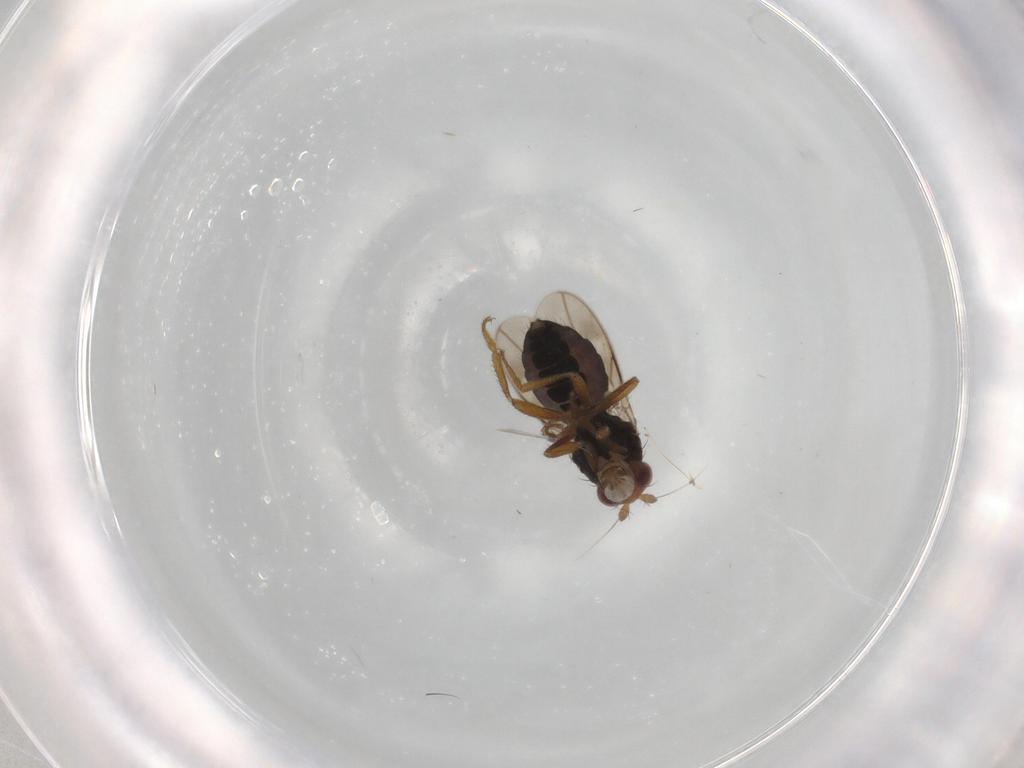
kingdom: Animalia
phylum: Arthropoda
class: Insecta
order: Diptera
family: Sphaeroceridae
